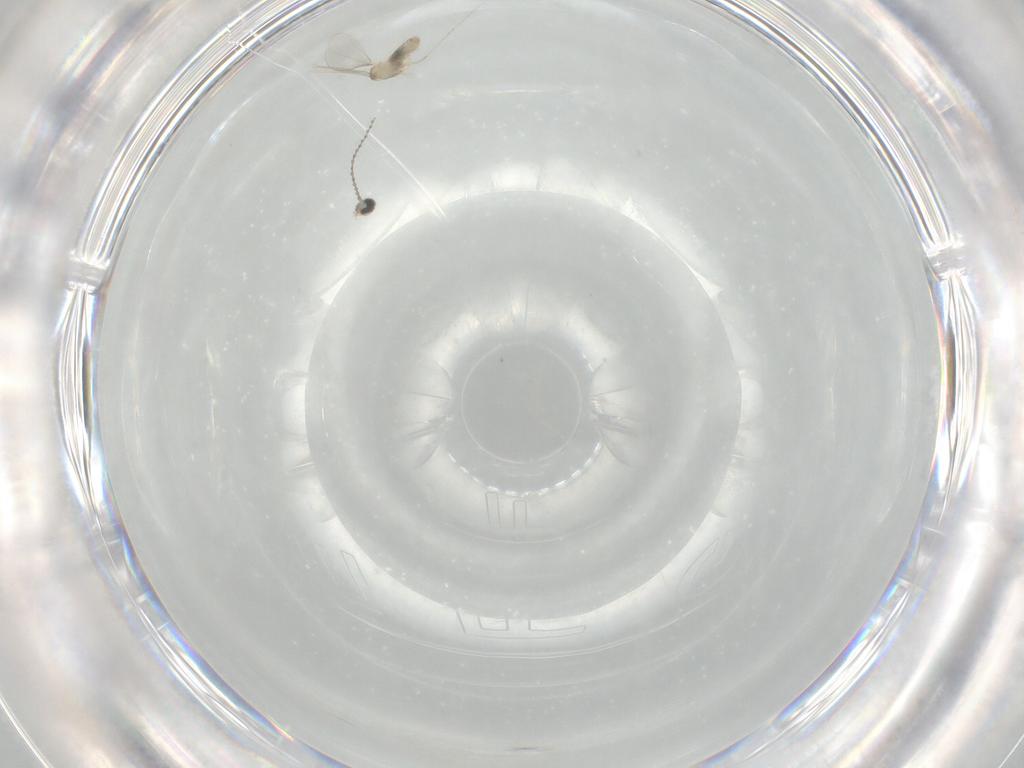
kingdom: Animalia
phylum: Arthropoda
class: Insecta
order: Diptera
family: Cecidomyiidae
